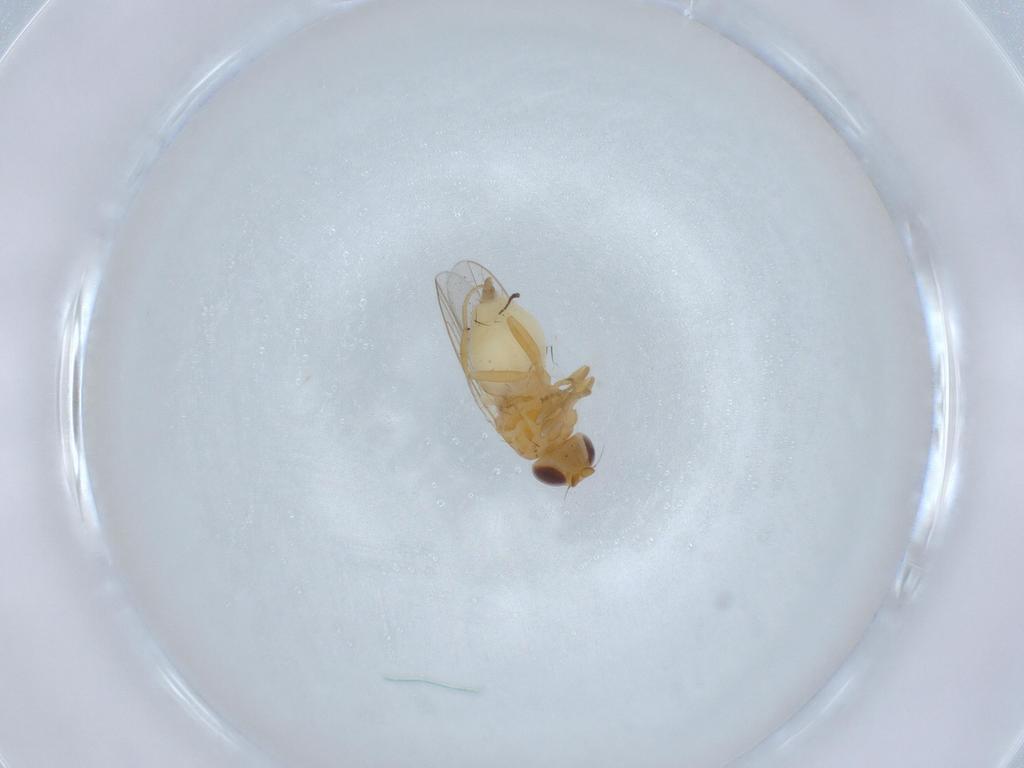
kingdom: Animalia
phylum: Arthropoda
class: Insecta
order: Diptera
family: Chloropidae
